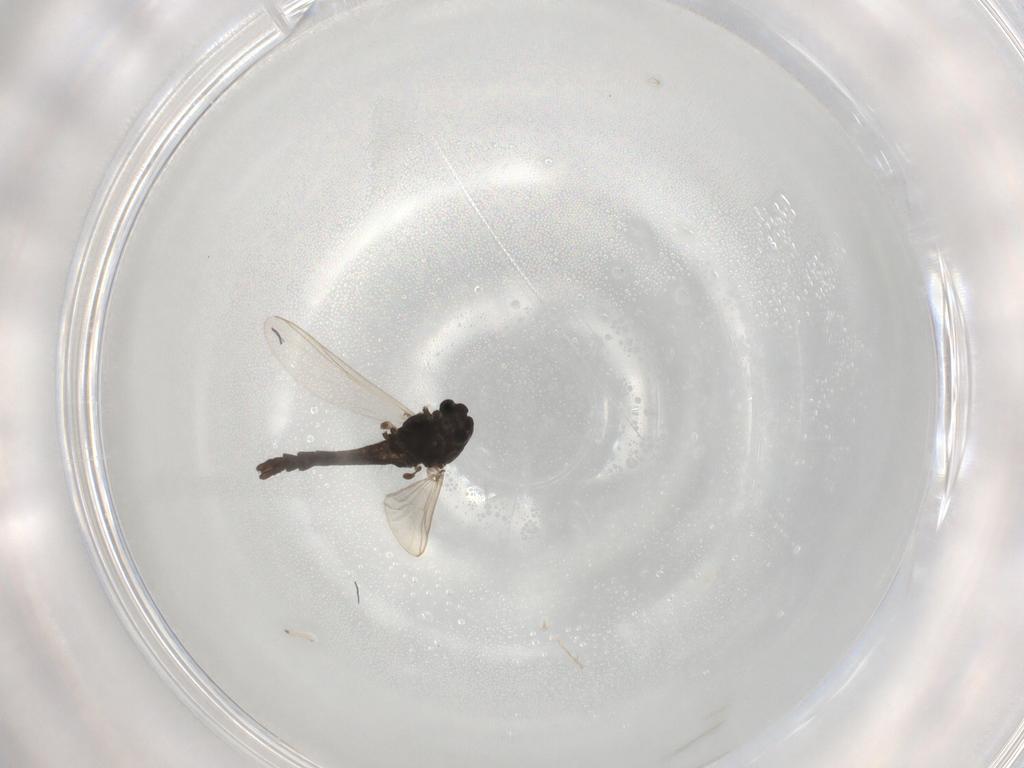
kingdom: Animalia
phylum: Arthropoda
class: Insecta
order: Diptera
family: Chironomidae
